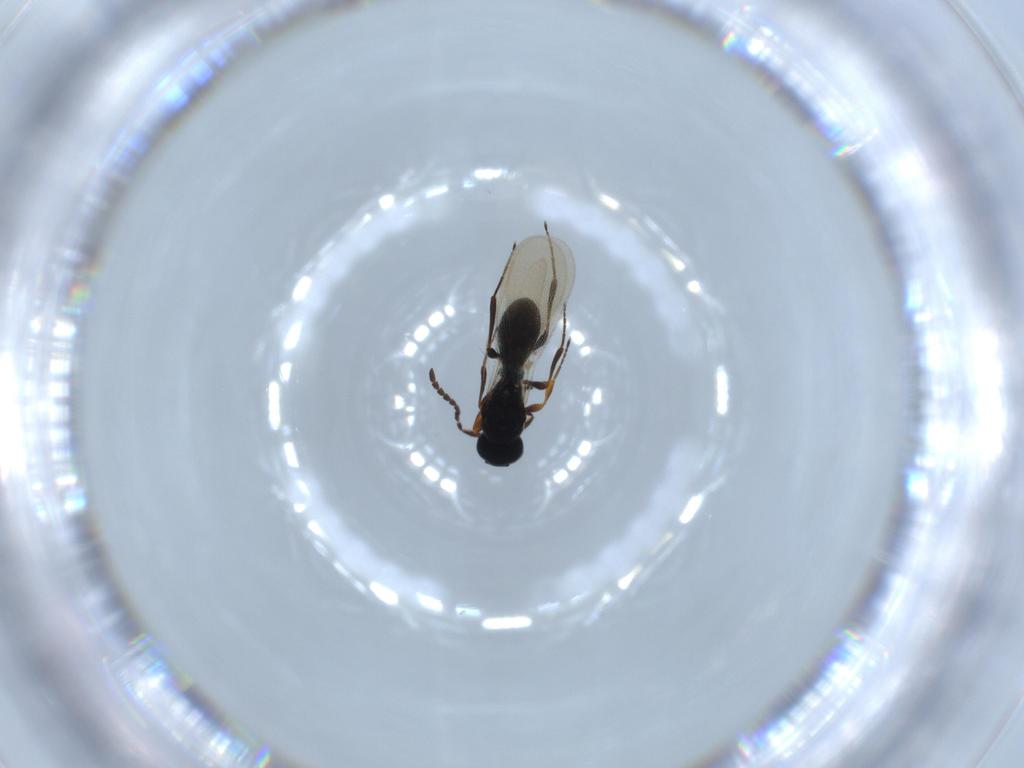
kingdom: Animalia
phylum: Arthropoda
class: Insecta
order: Hymenoptera
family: Platygastridae
